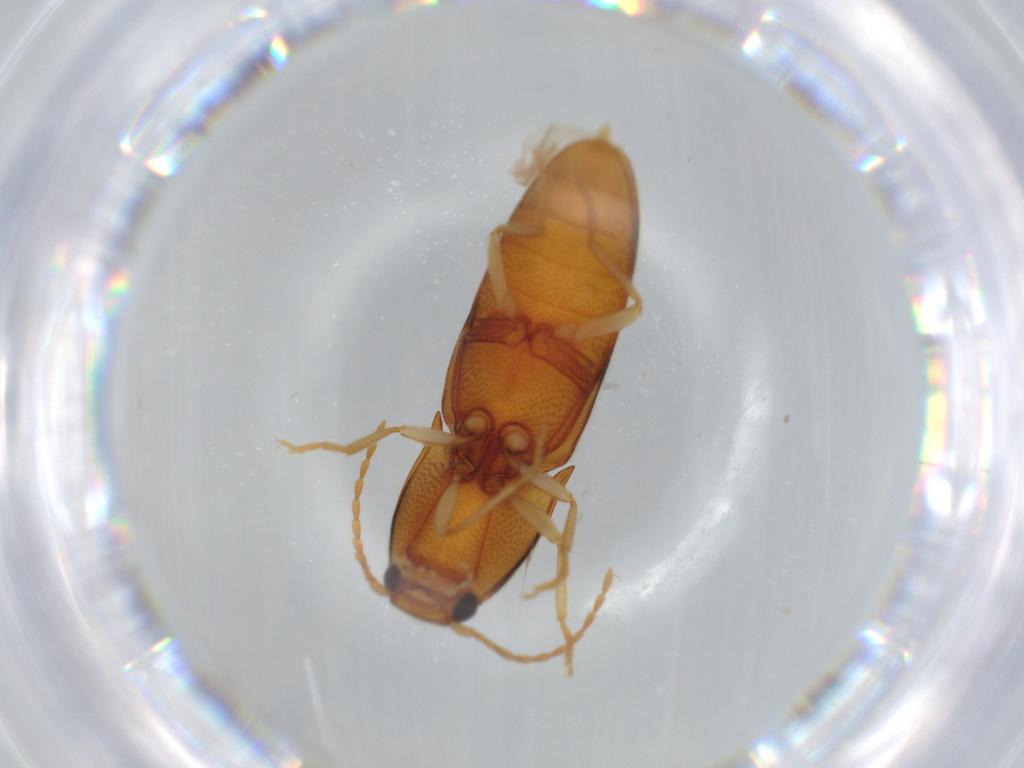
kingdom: Animalia
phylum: Arthropoda
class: Insecta
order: Coleoptera
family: Elateridae
